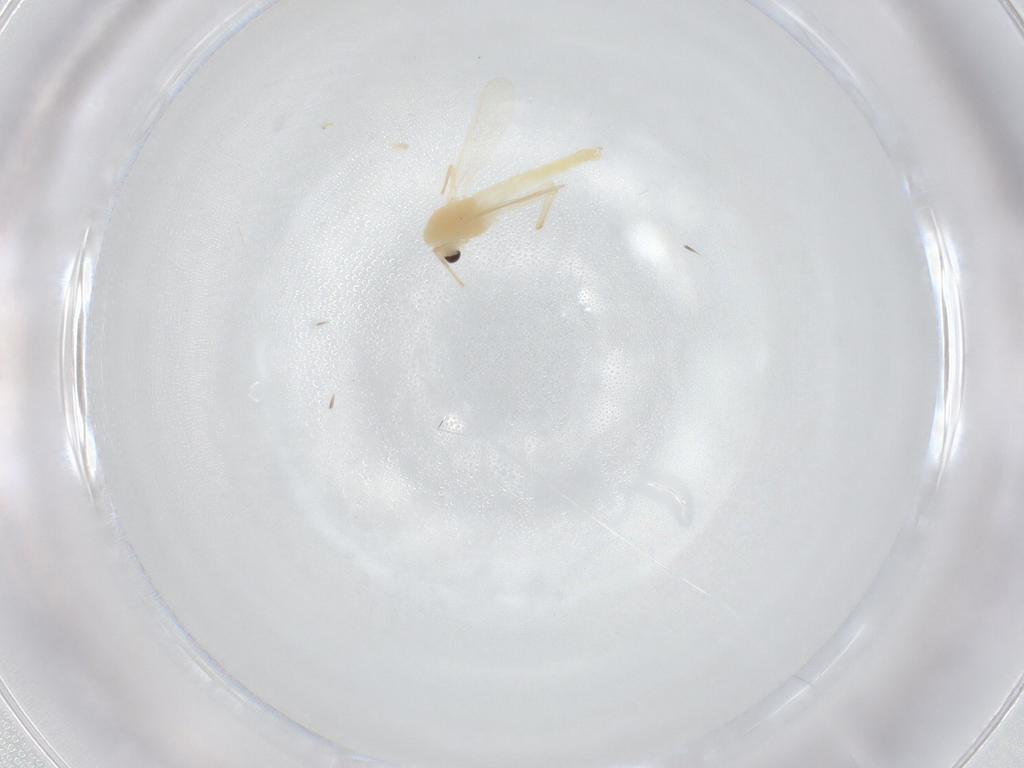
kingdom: Animalia
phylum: Arthropoda
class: Insecta
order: Diptera
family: Chironomidae
